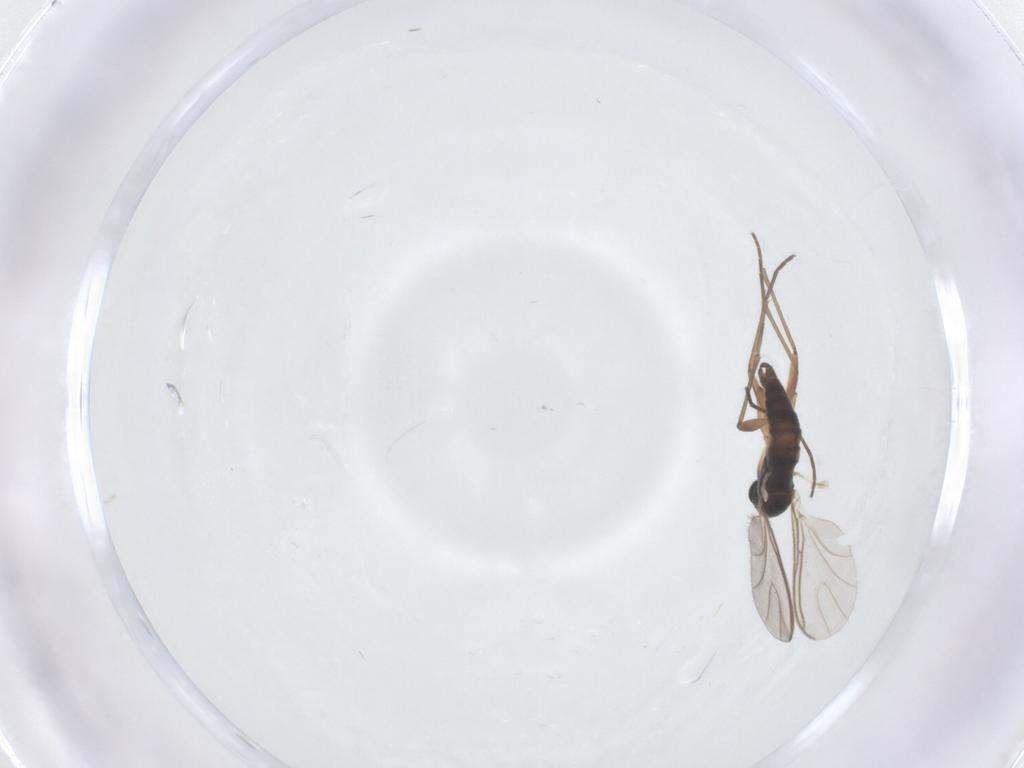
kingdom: Animalia
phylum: Arthropoda
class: Insecta
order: Diptera
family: Sciaridae
